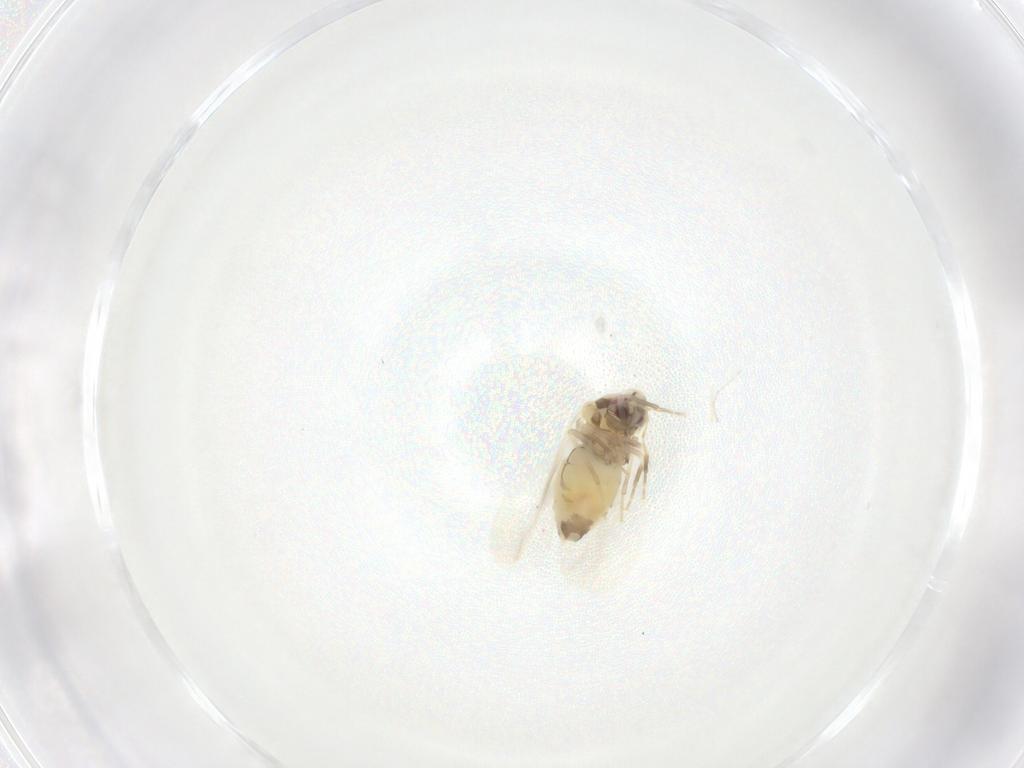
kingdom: Animalia
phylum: Arthropoda
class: Insecta
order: Hemiptera
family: Aleyrodidae
